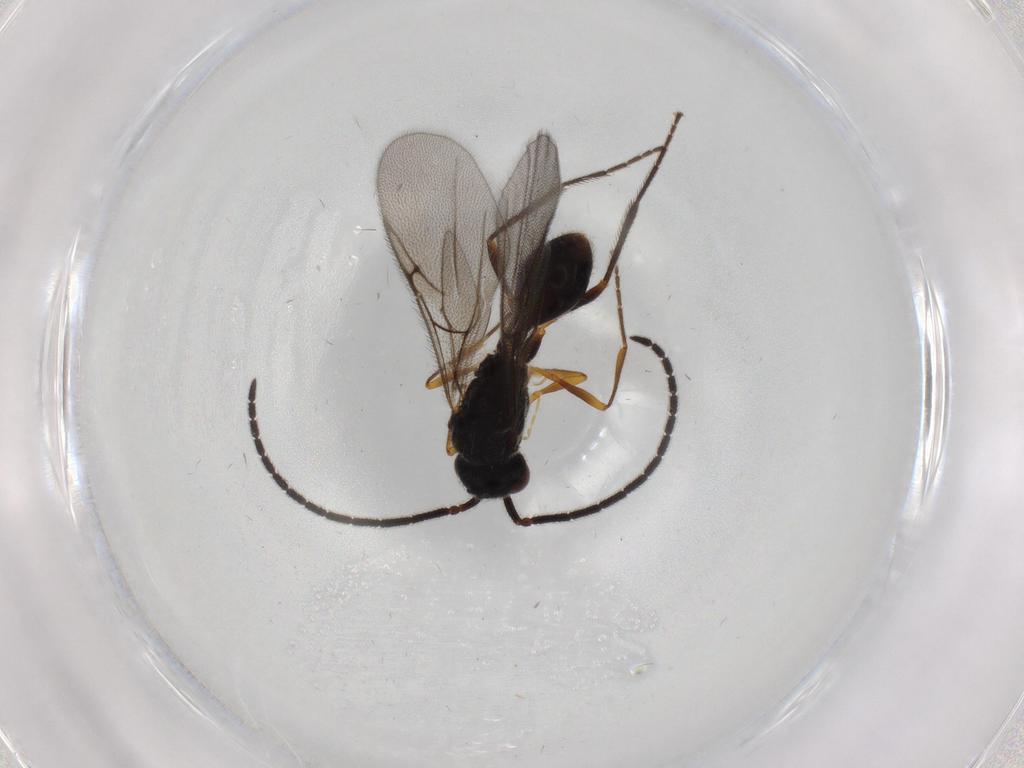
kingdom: Animalia
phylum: Arthropoda
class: Insecta
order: Hymenoptera
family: Diapriidae
